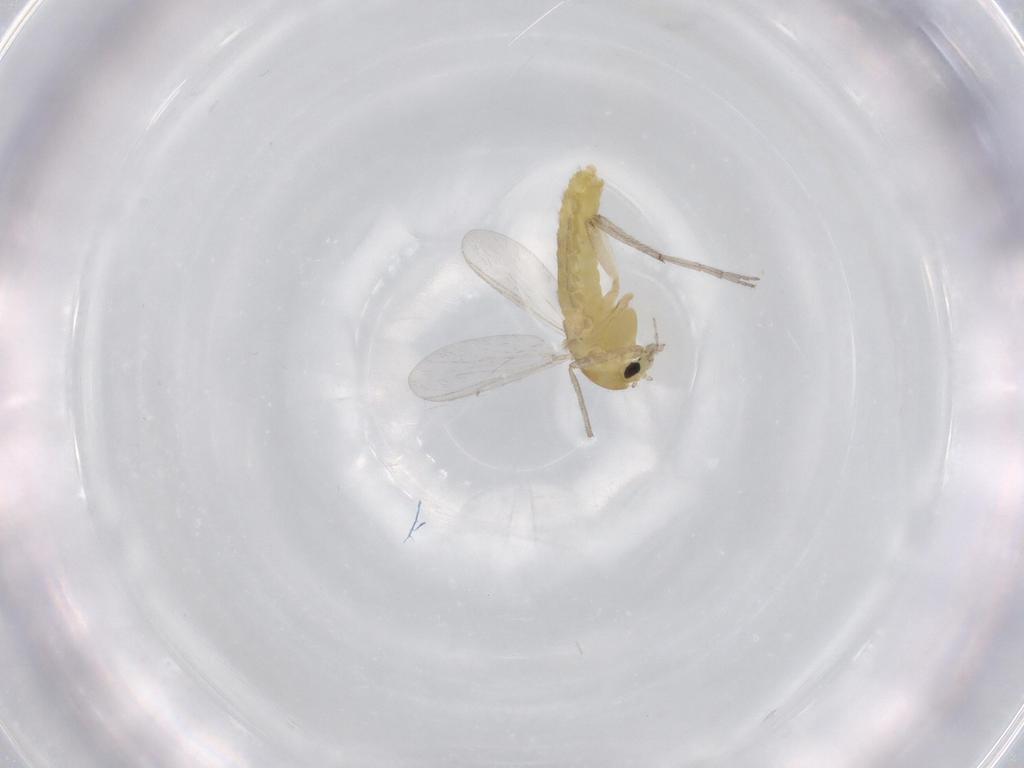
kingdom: Animalia
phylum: Arthropoda
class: Insecta
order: Diptera
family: Chironomidae
